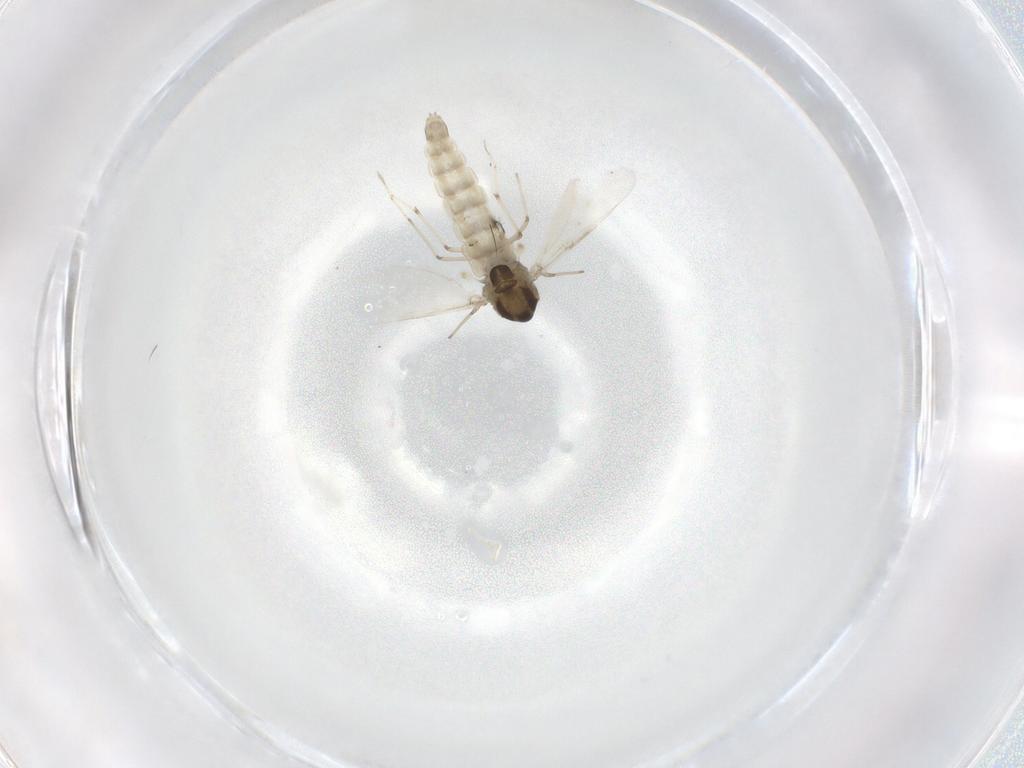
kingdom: Animalia
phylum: Arthropoda
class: Insecta
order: Diptera
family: Chironomidae
